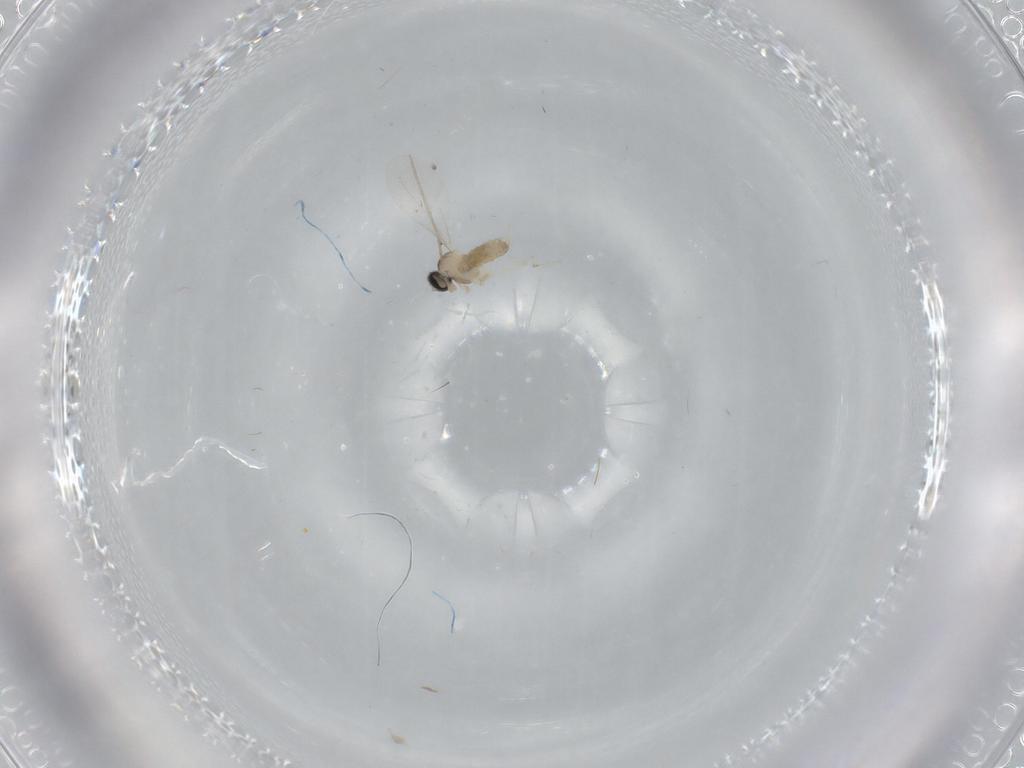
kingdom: Animalia
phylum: Arthropoda
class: Insecta
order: Diptera
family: Cecidomyiidae
